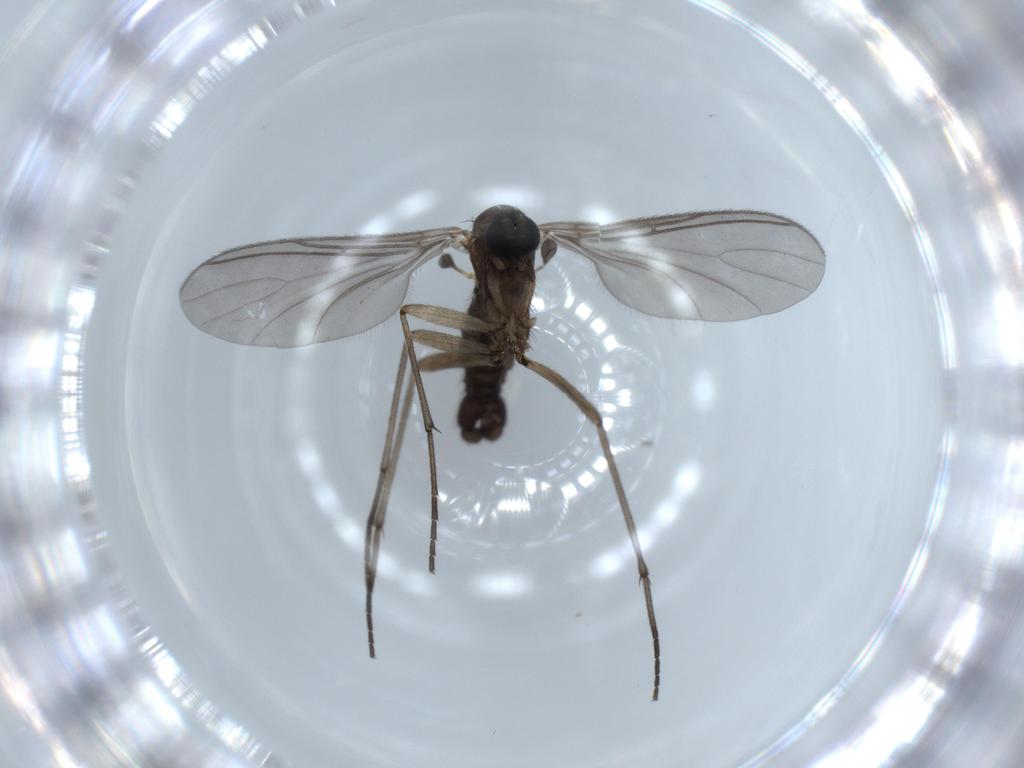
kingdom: Animalia
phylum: Arthropoda
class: Insecta
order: Diptera
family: Sciaridae
